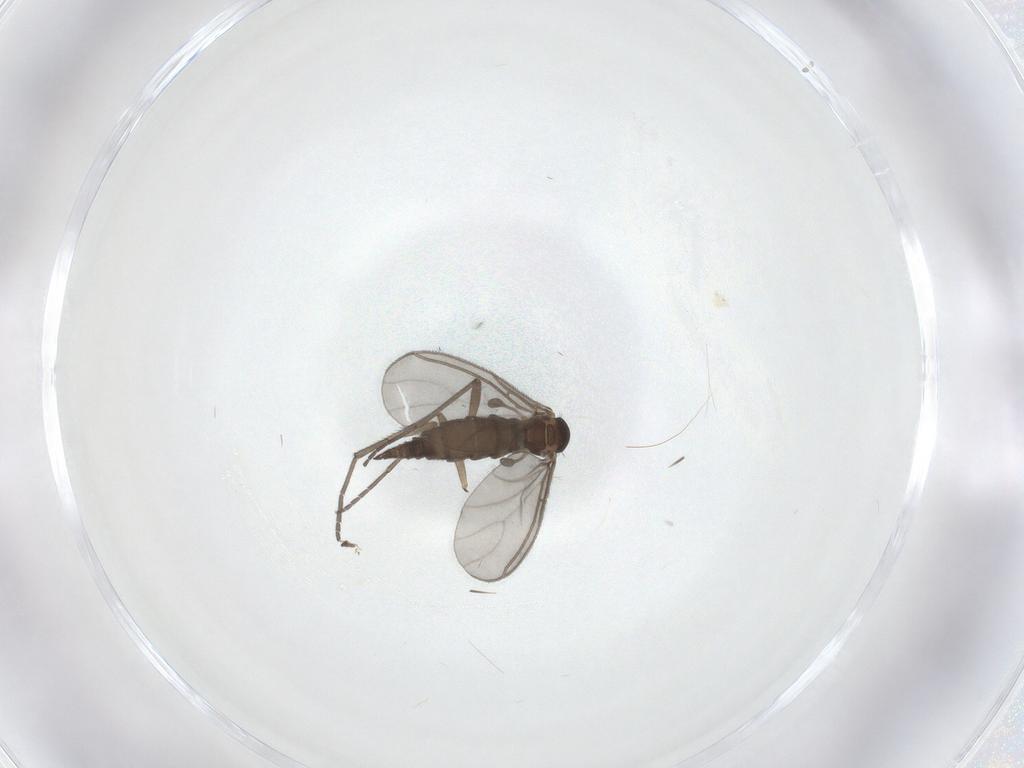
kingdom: Animalia
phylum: Arthropoda
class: Insecta
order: Diptera
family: Sciaridae
